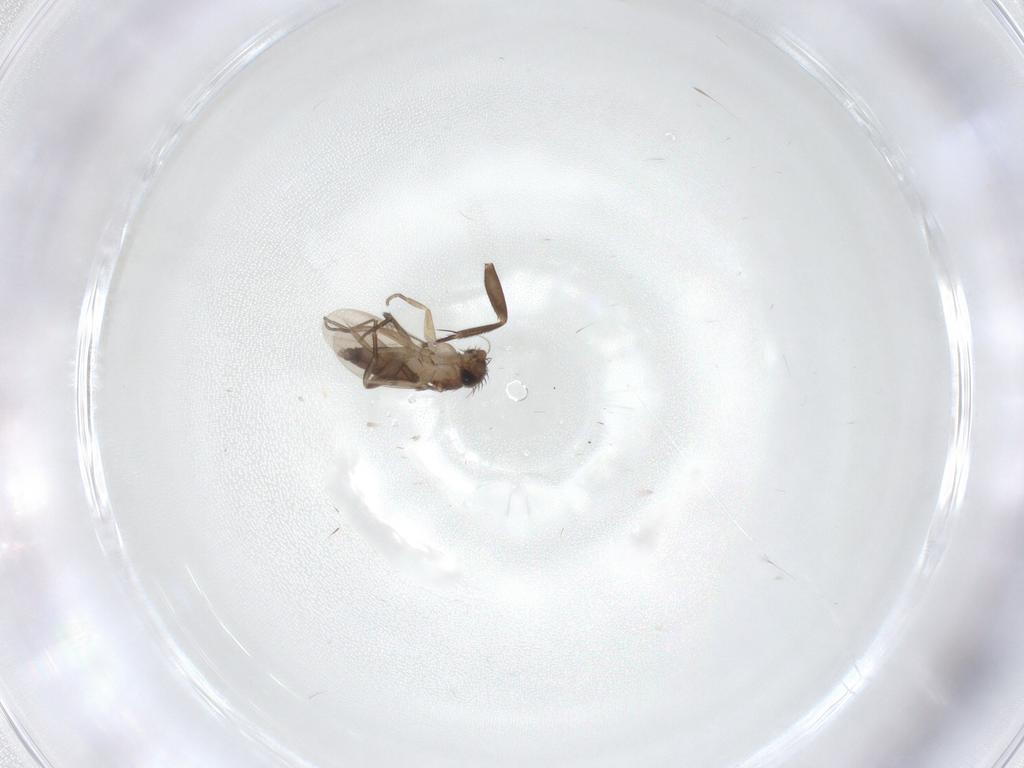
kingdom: Animalia
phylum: Arthropoda
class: Insecta
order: Diptera
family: Phoridae
